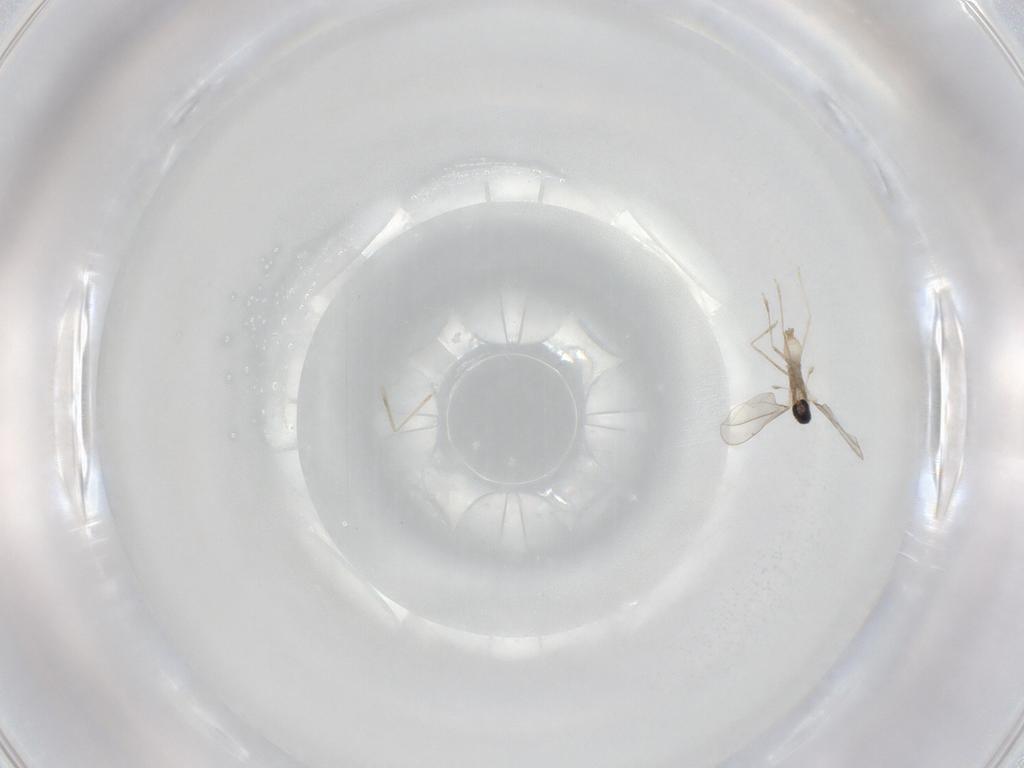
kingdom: Animalia
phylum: Arthropoda
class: Insecta
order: Diptera
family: Cecidomyiidae
